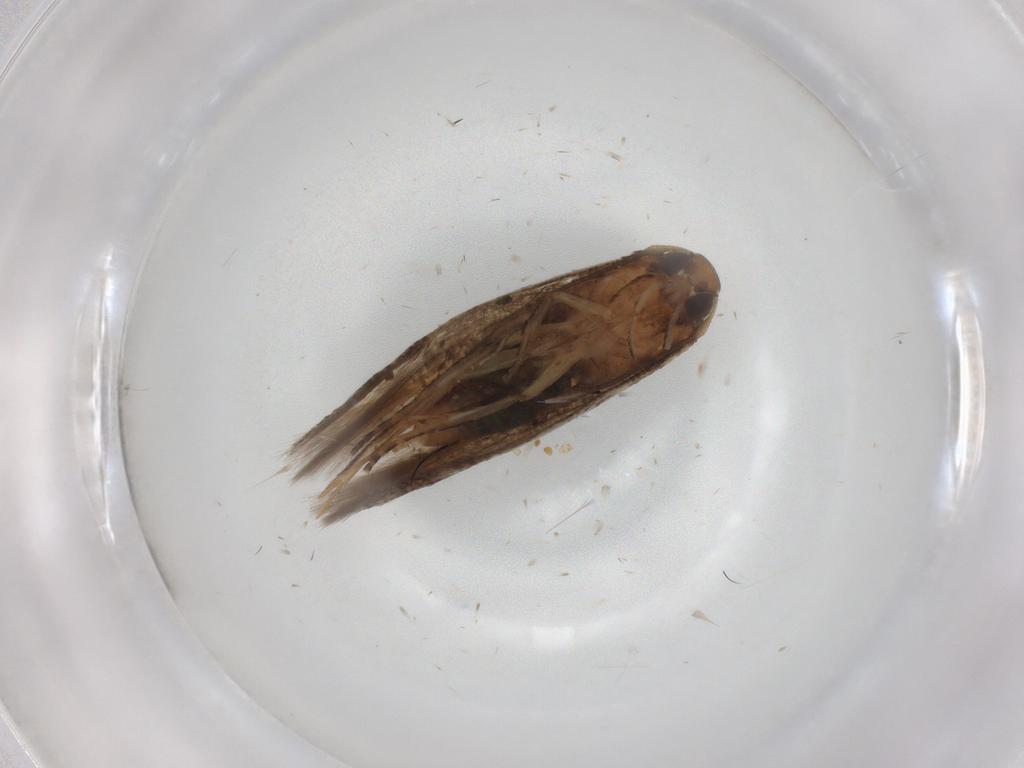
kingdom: Animalia
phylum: Arthropoda
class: Insecta
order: Lepidoptera
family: Cosmopterigidae
